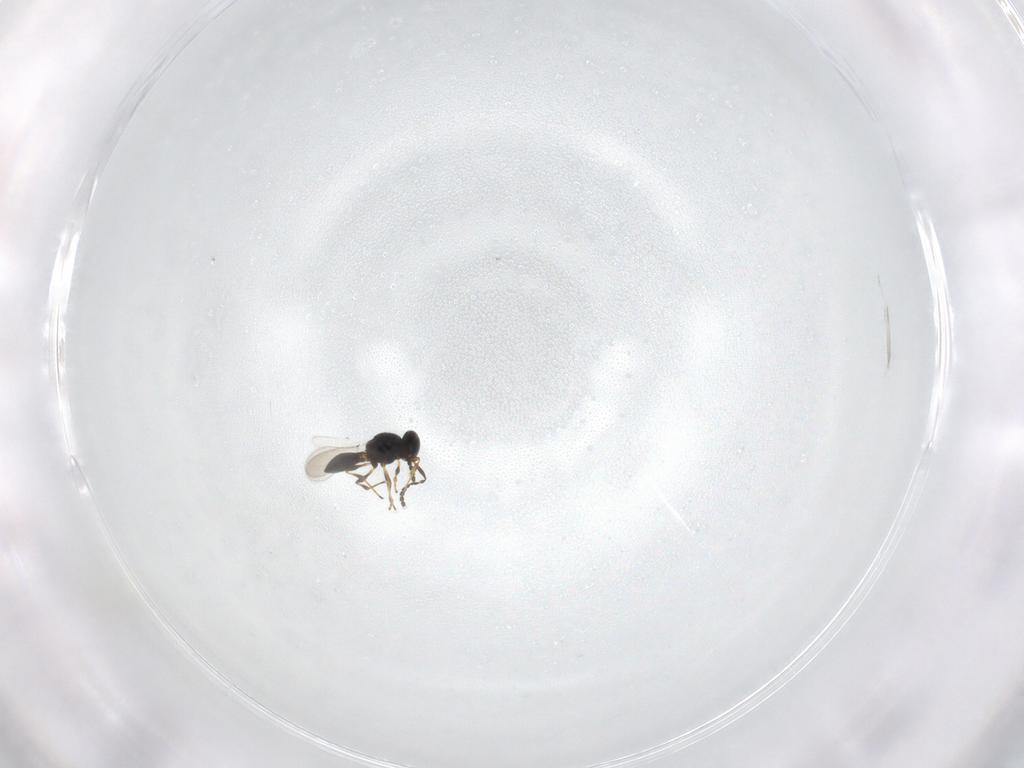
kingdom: Animalia
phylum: Arthropoda
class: Insecta
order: Hymenoptera
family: Platygastridae
